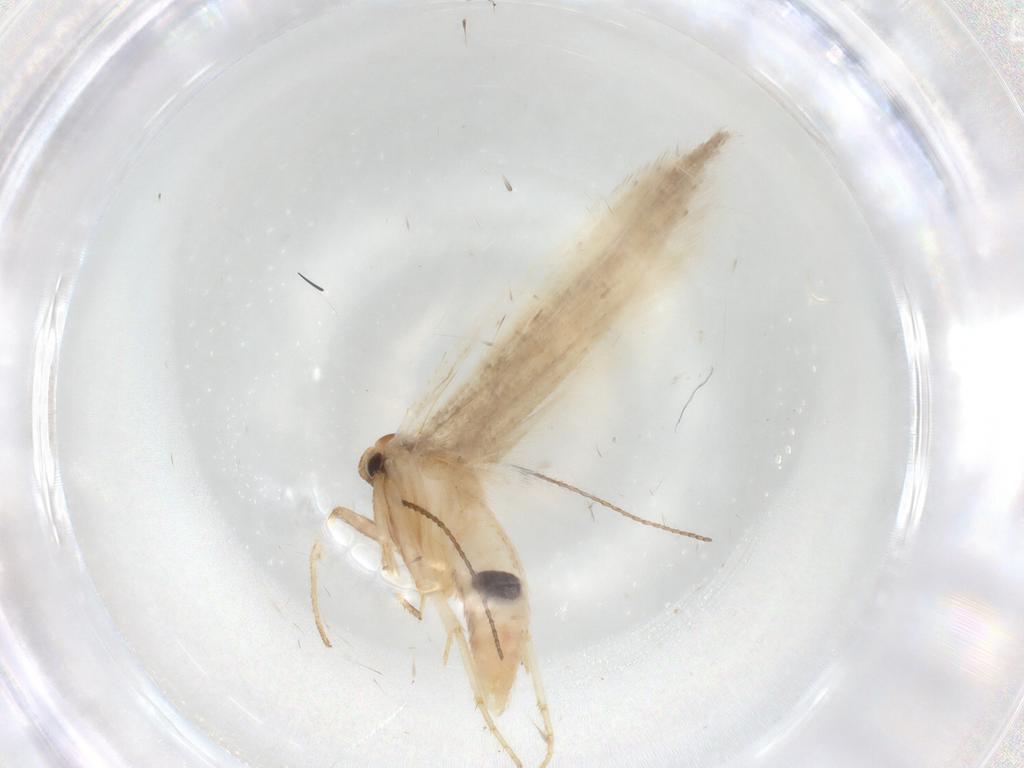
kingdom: Animalia
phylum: Arthropoda
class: Insecta
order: Lepidoptera
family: Gelechiidae
